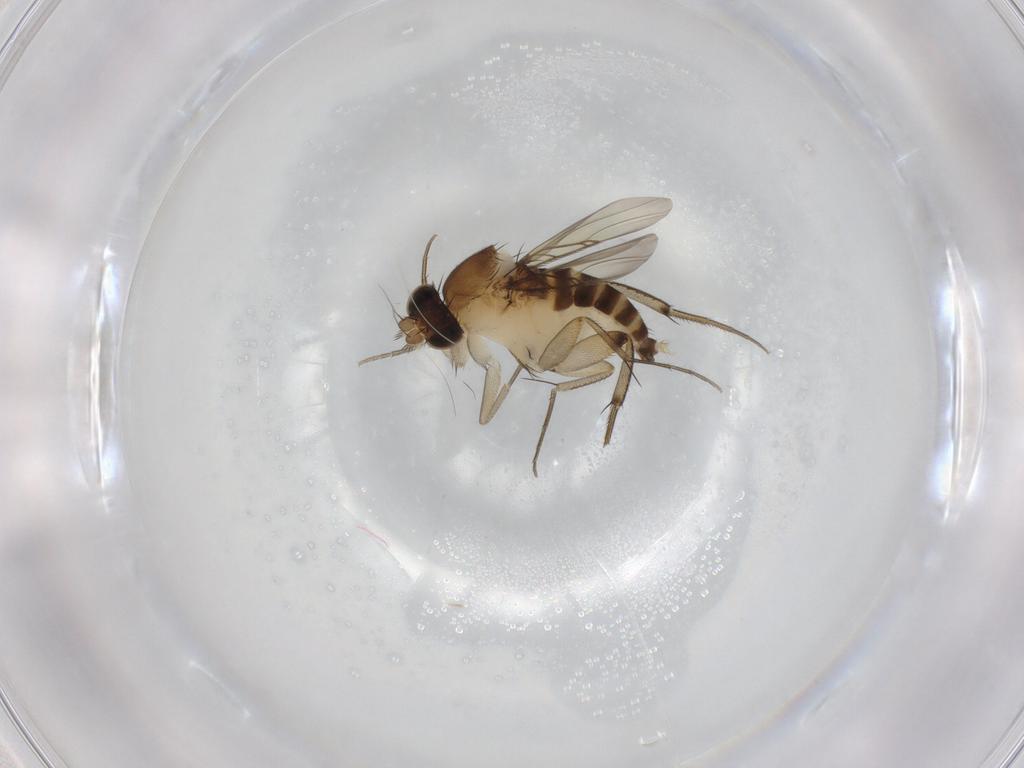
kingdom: Animalia
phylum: Arthropoda
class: Insecta
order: Diptera
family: Phoridae
